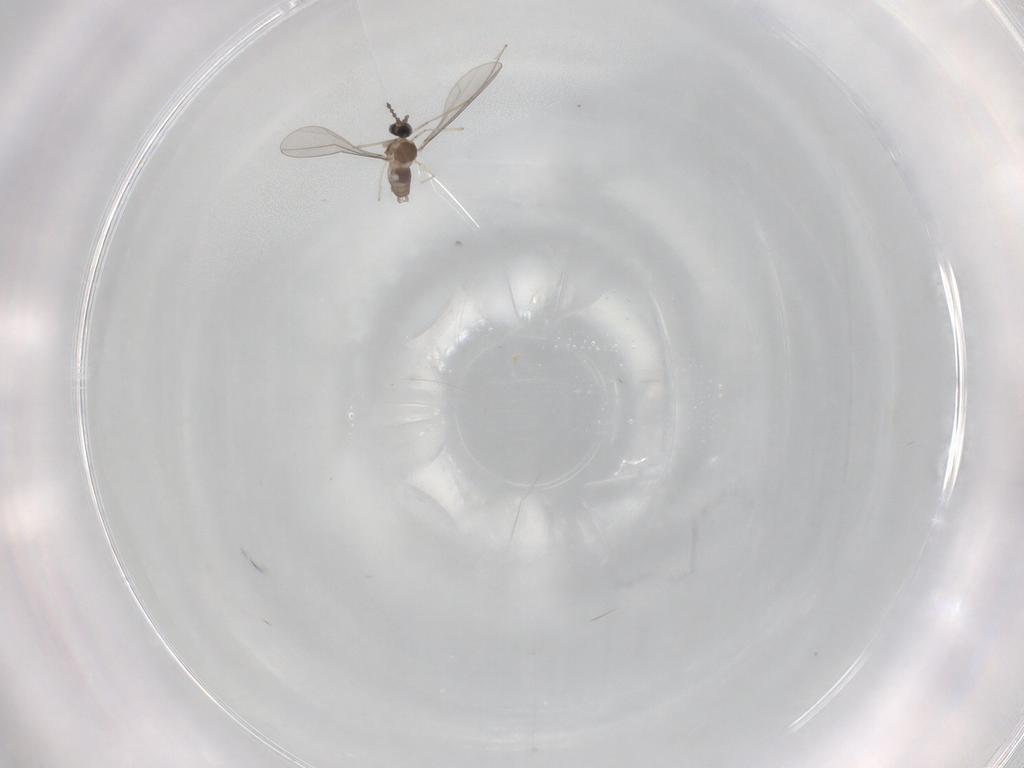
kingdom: Animalia
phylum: Arthropoda
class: Insecta
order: Diptera
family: Cecidomyiidae
